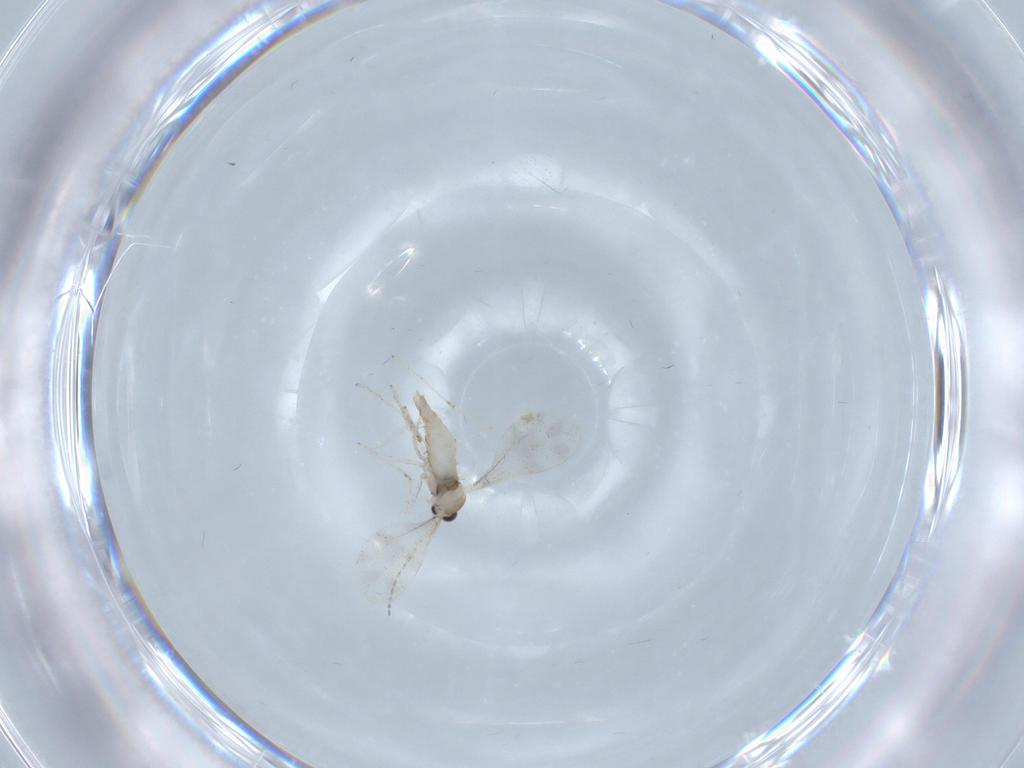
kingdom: Animalia
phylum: Arthropoda
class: Insecta
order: Diptera
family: Cecidomyiidae
